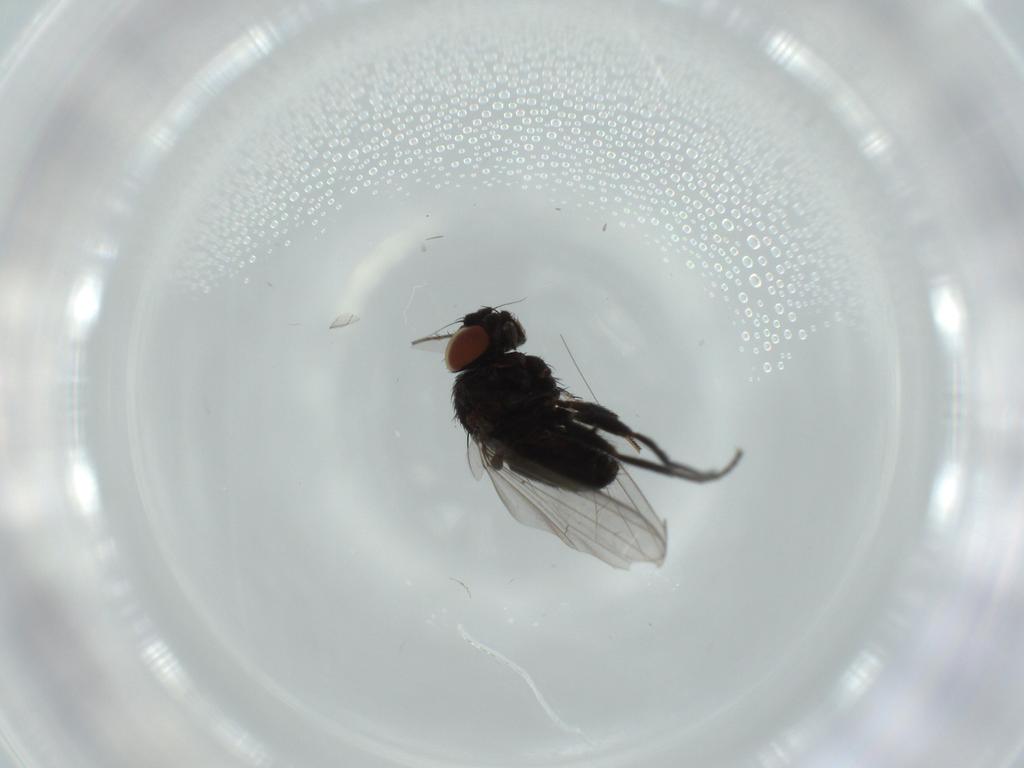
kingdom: Animalia
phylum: Arthropoda
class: Insecta
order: Diptera
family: Milichiidae
